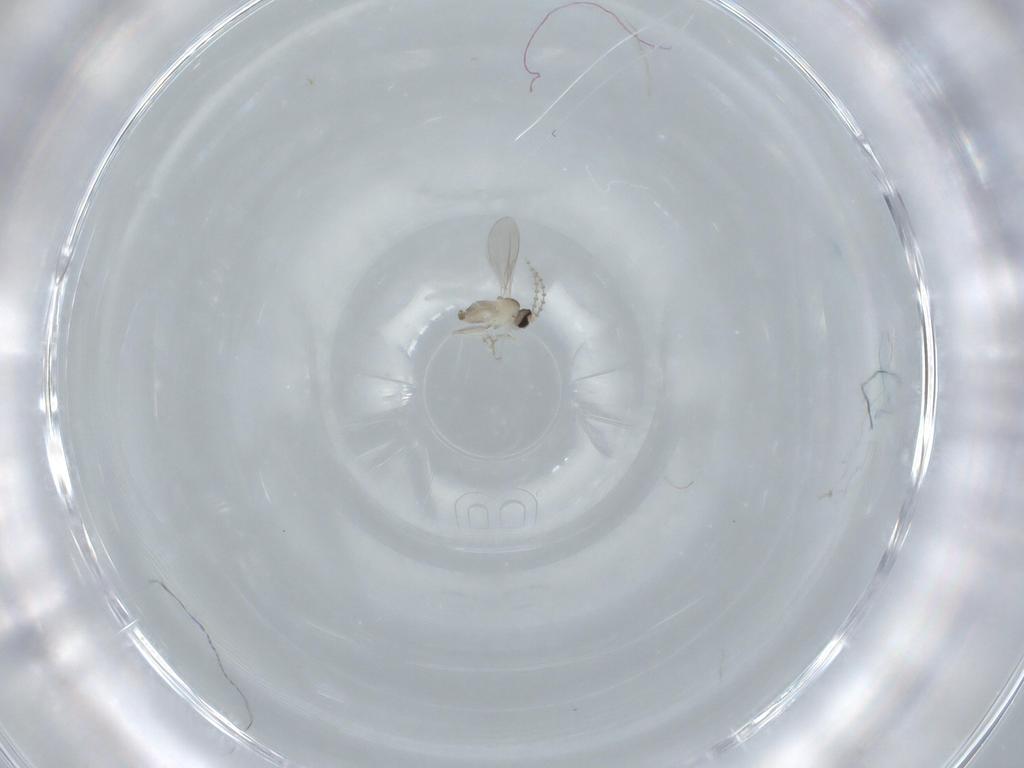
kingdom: Animalia
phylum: Arthropoda
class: Insecta
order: Diptera
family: Cecidomyiidae
